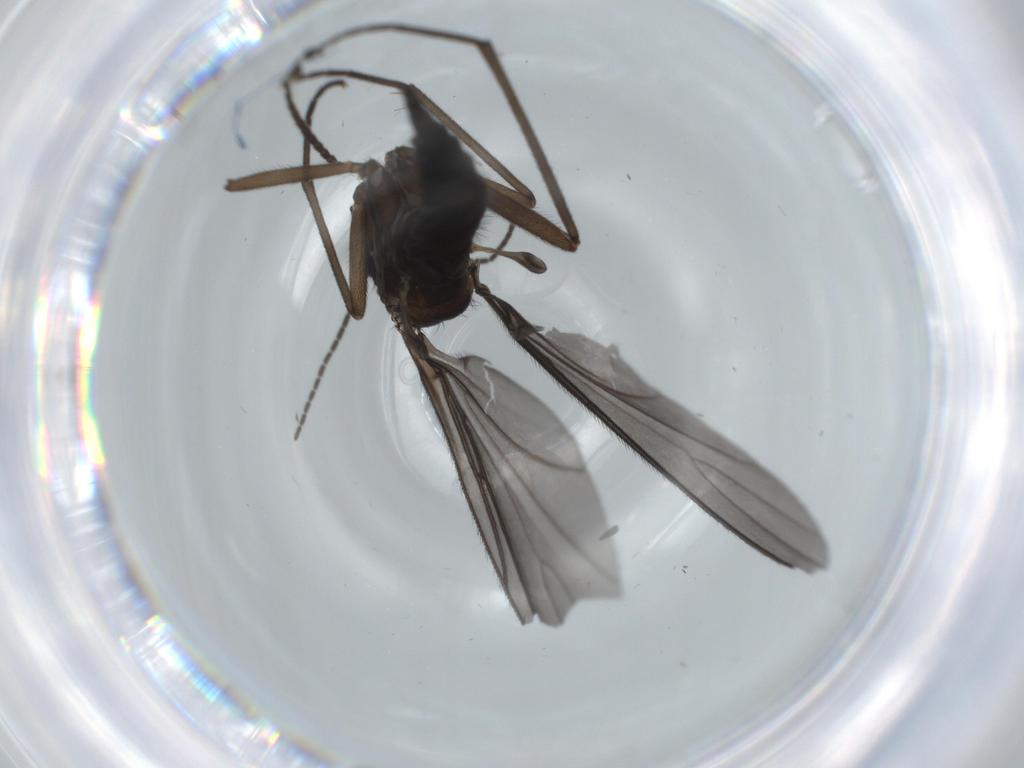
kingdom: Animalia
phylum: Arthropoda
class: Insecta
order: Diptera
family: Sciaridae
